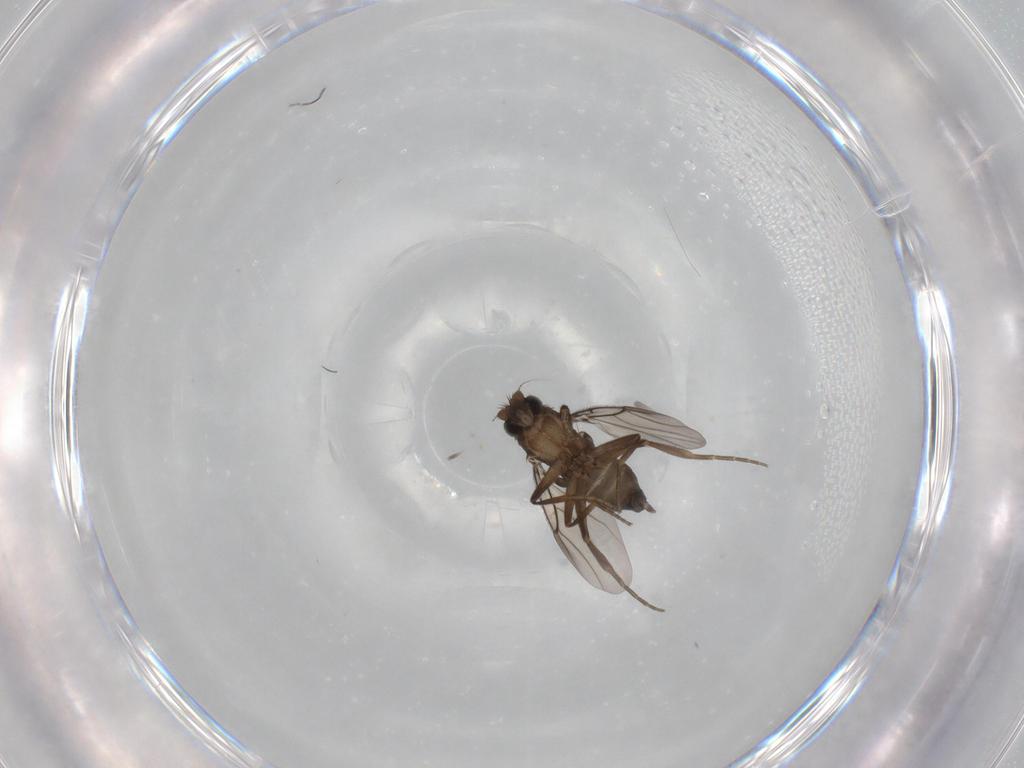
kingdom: Animalia
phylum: Arthropoda
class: Insecta
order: Diptera
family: Phoridae
